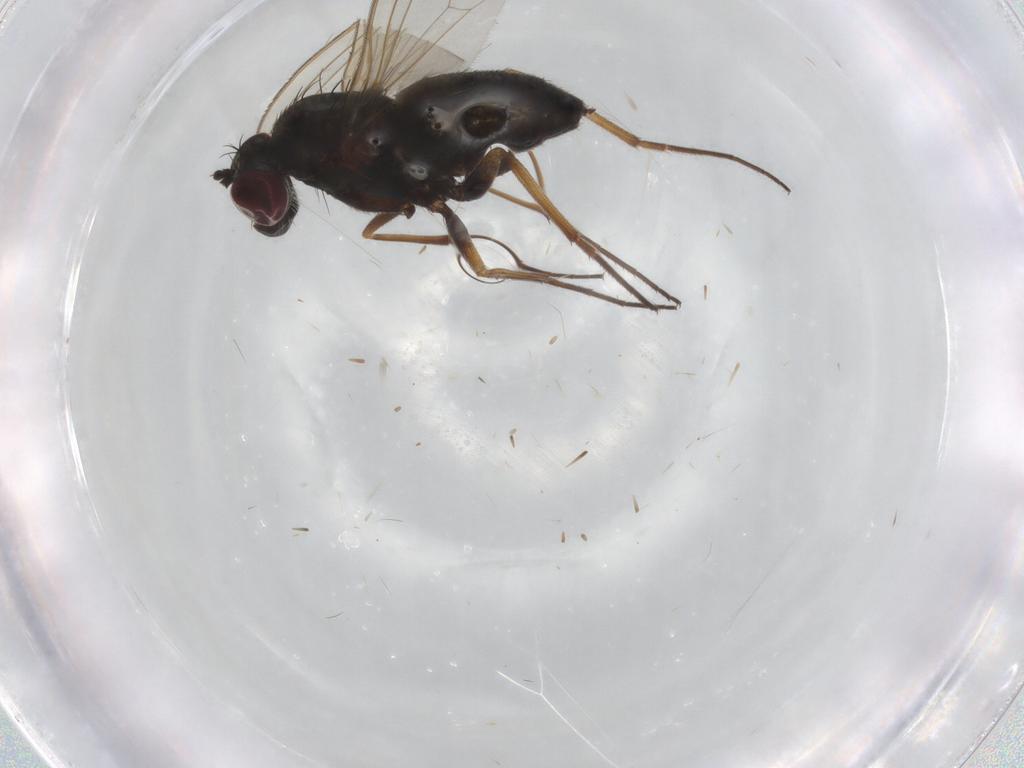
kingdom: Animalia
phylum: Arthropoda
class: Insecta
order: Diptera
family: Dolichopodidae
